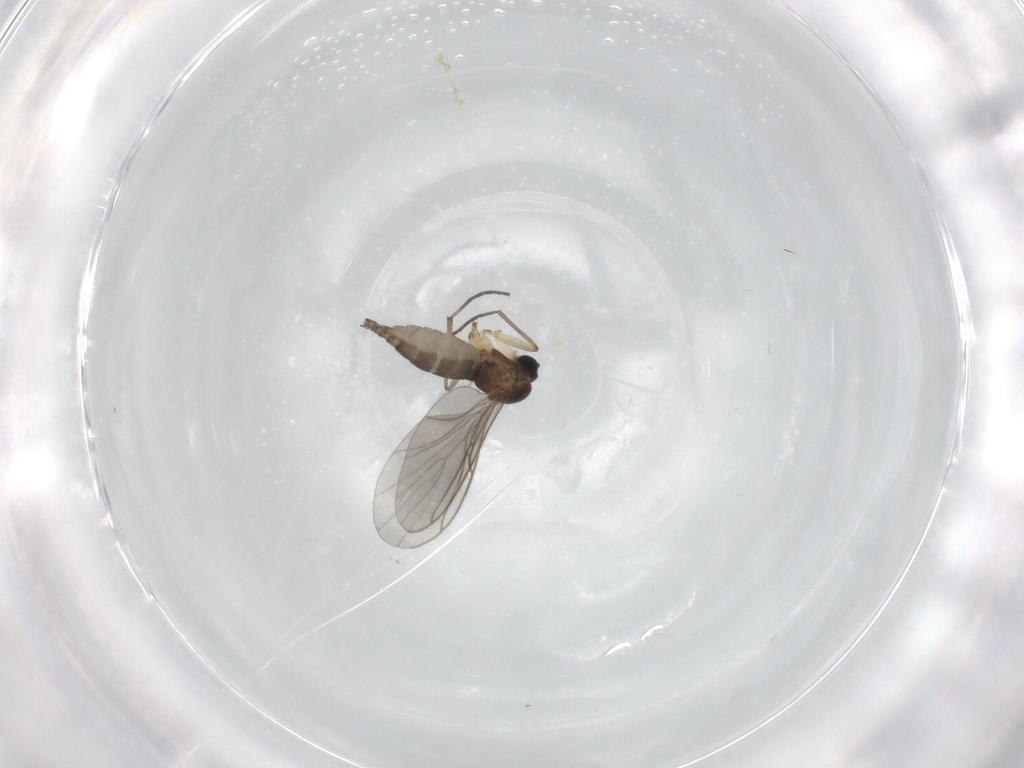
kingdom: Animalia
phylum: Arthropoda
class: Insecta
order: Diptera
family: Sciaridae
